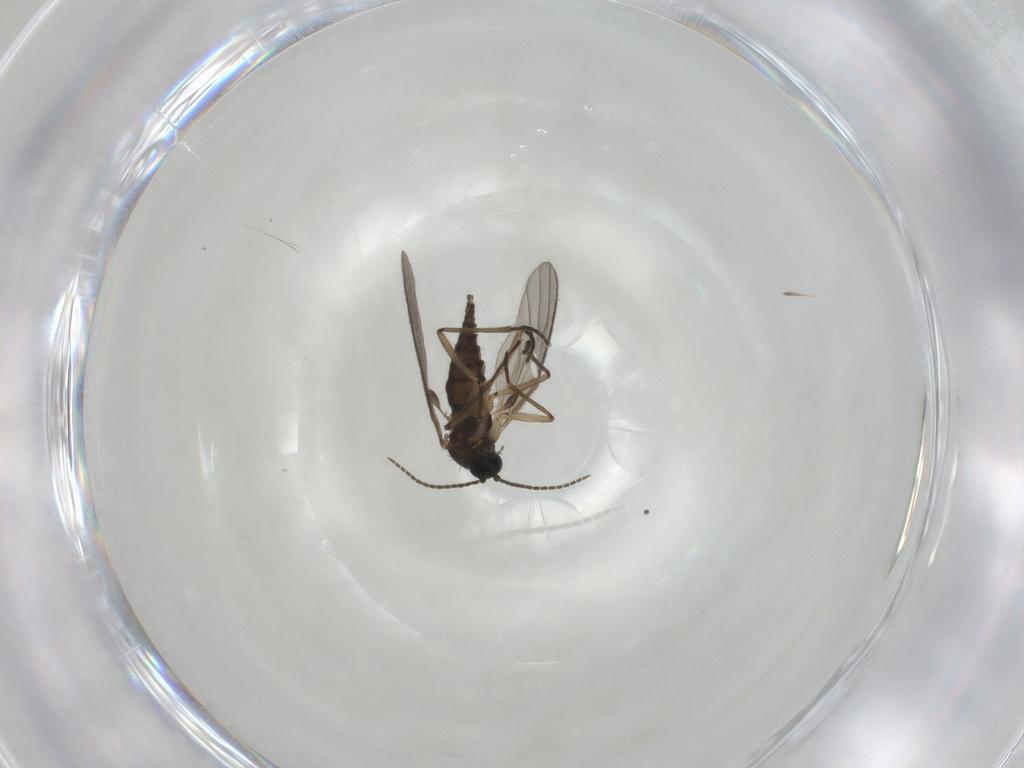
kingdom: Animalia
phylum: Arthropoda
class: Insecta
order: Diptera
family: Sciaridae
